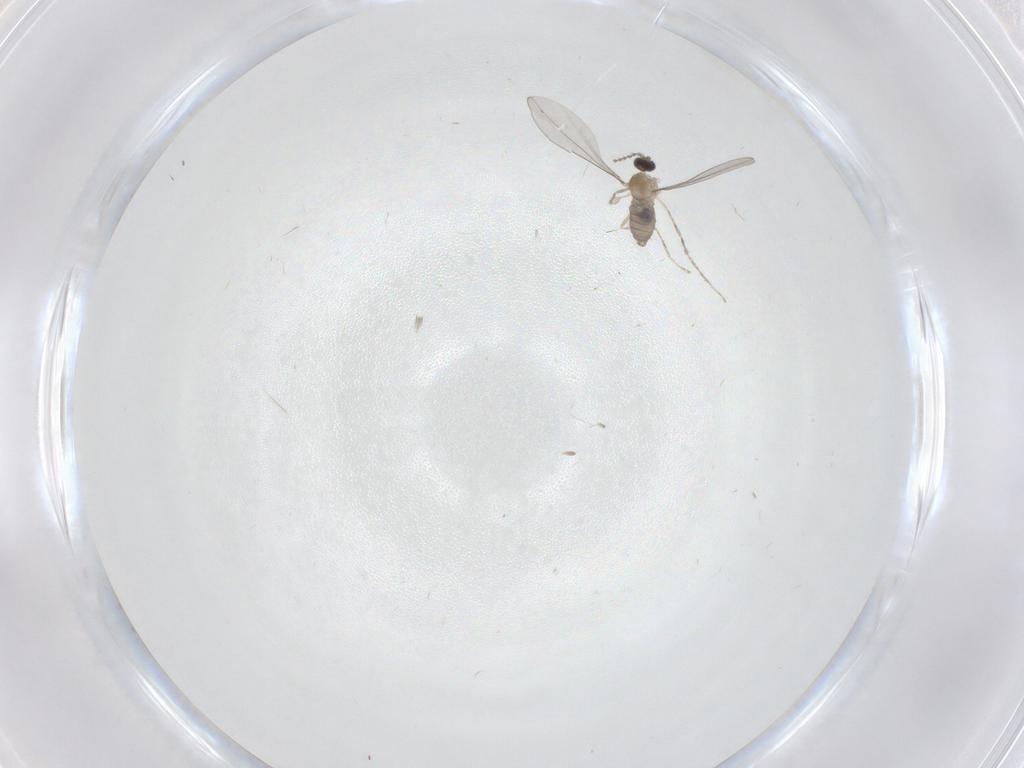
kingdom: Animalia
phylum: Arthropoda
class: Insecta
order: Diptera
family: Cecidomyiidae
